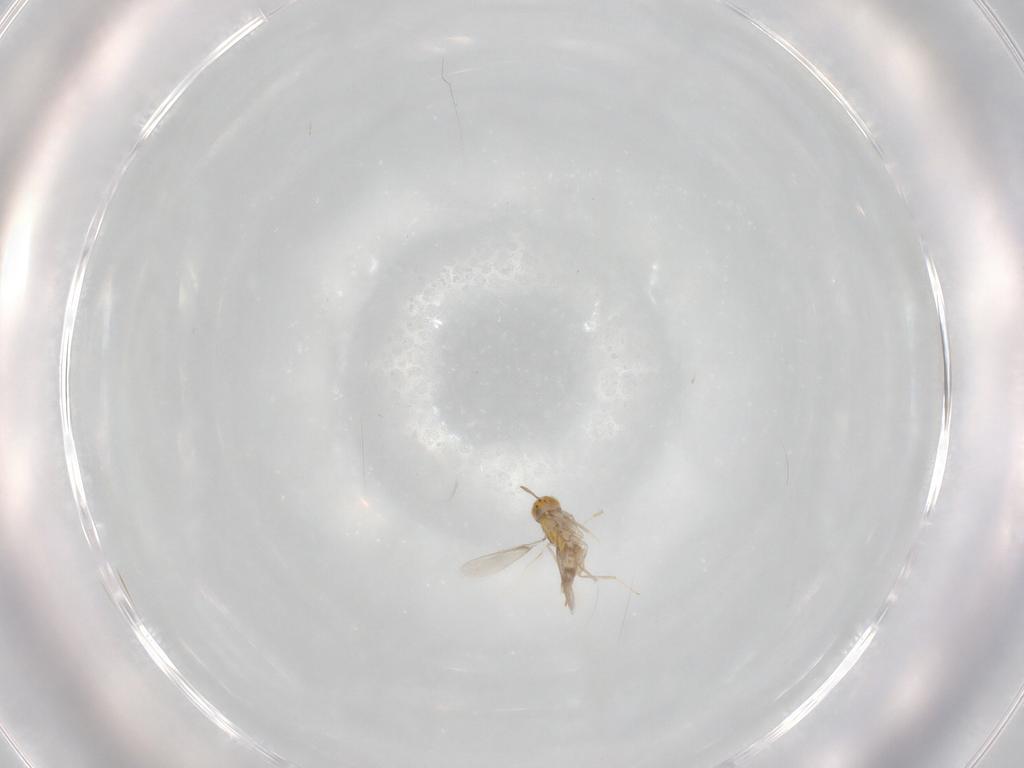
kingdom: Animalia
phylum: Arthropoda
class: Insecta
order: Hymenoptera
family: Aphelinidae
